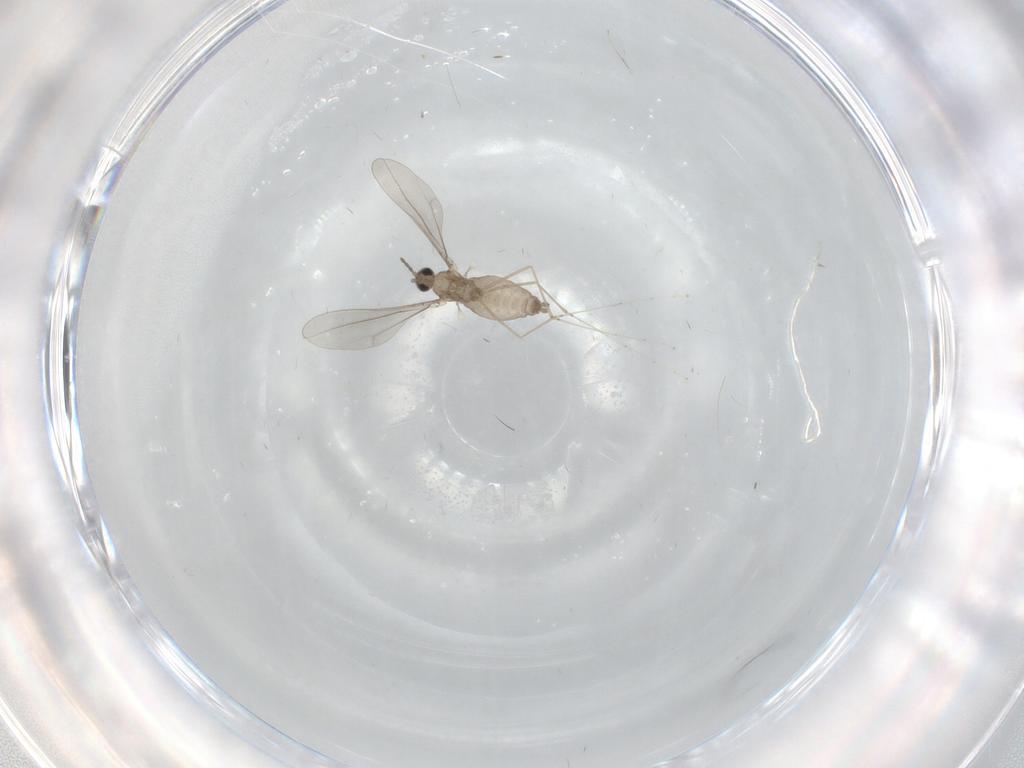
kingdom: Animalia
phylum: Arthropoda
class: Insecta
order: Diptera
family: Cecidomyiidae
